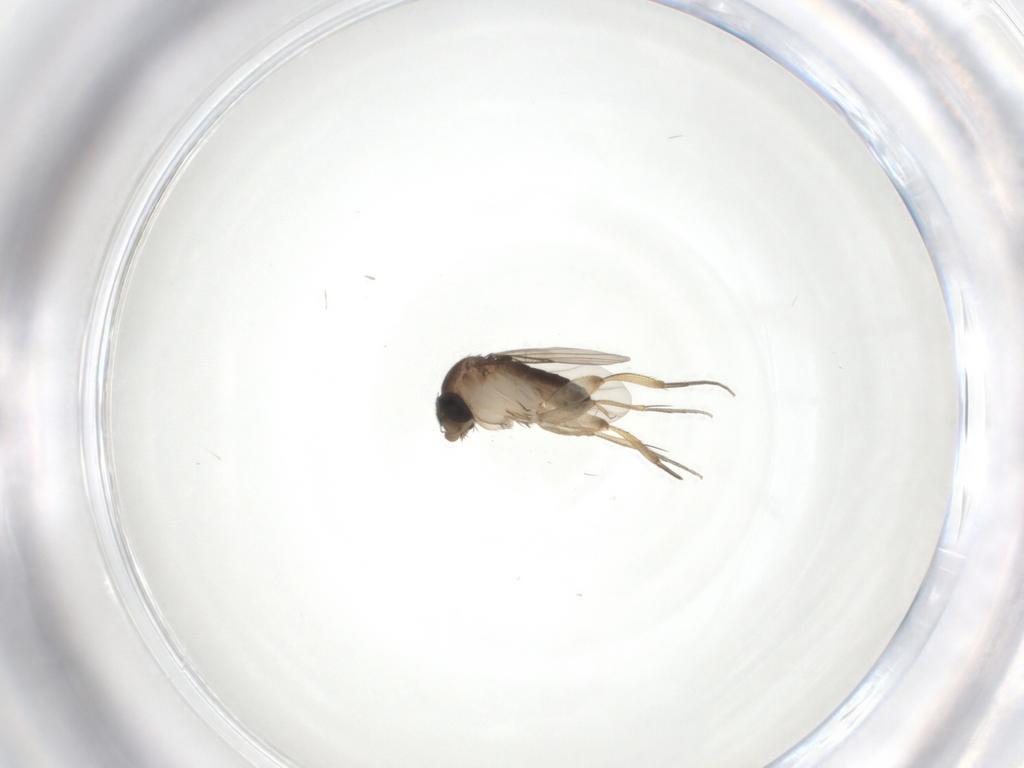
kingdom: Animalia
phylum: Arthropoda
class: Insecta
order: Diptera
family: Phoridae
